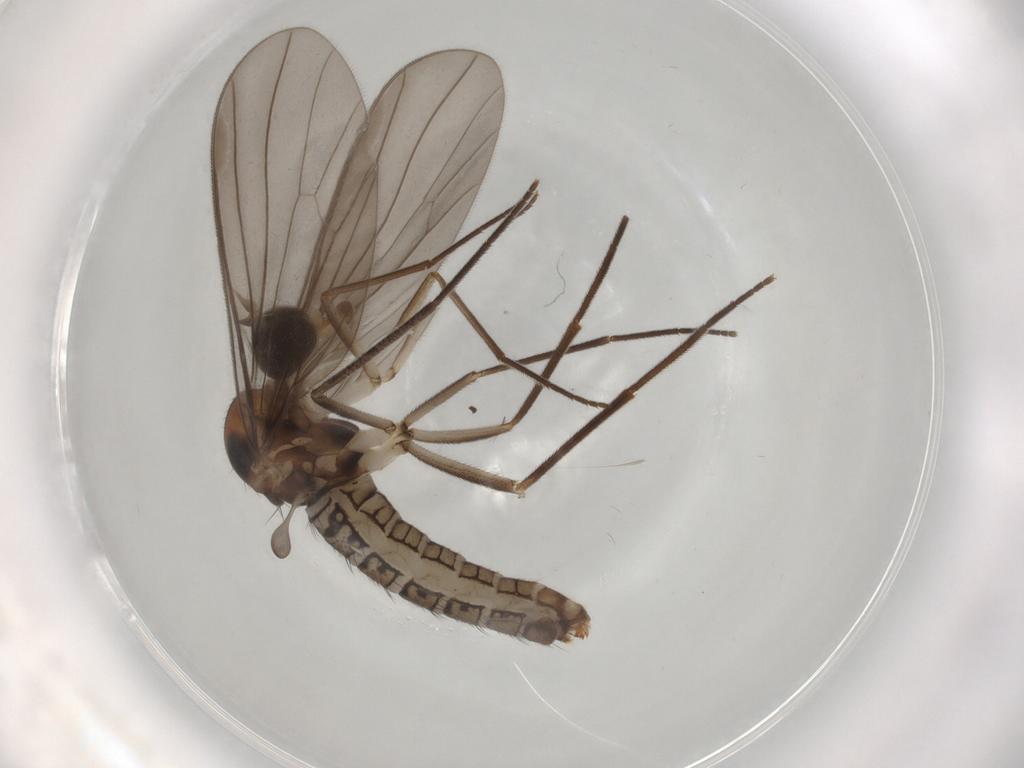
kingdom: Animalia
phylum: Arthropoda
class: Insecta
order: Diptera
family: Empididae
